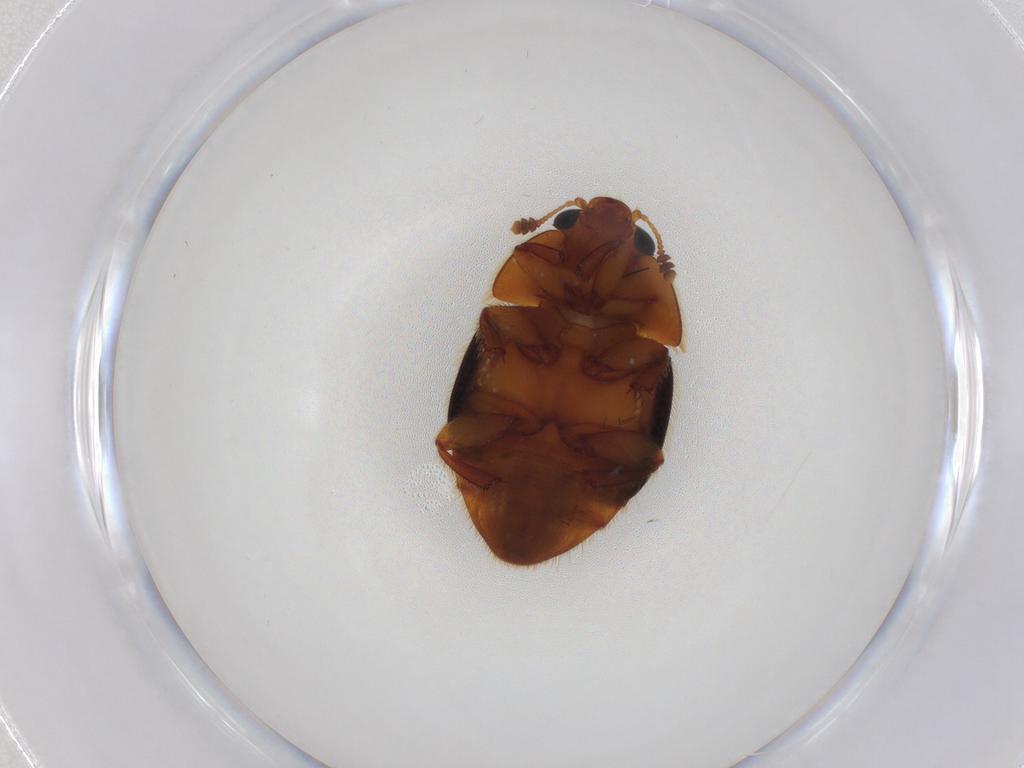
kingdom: Animalia
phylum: Arthropoda
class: Insecta
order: Coleoptera
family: Nitidulidae
